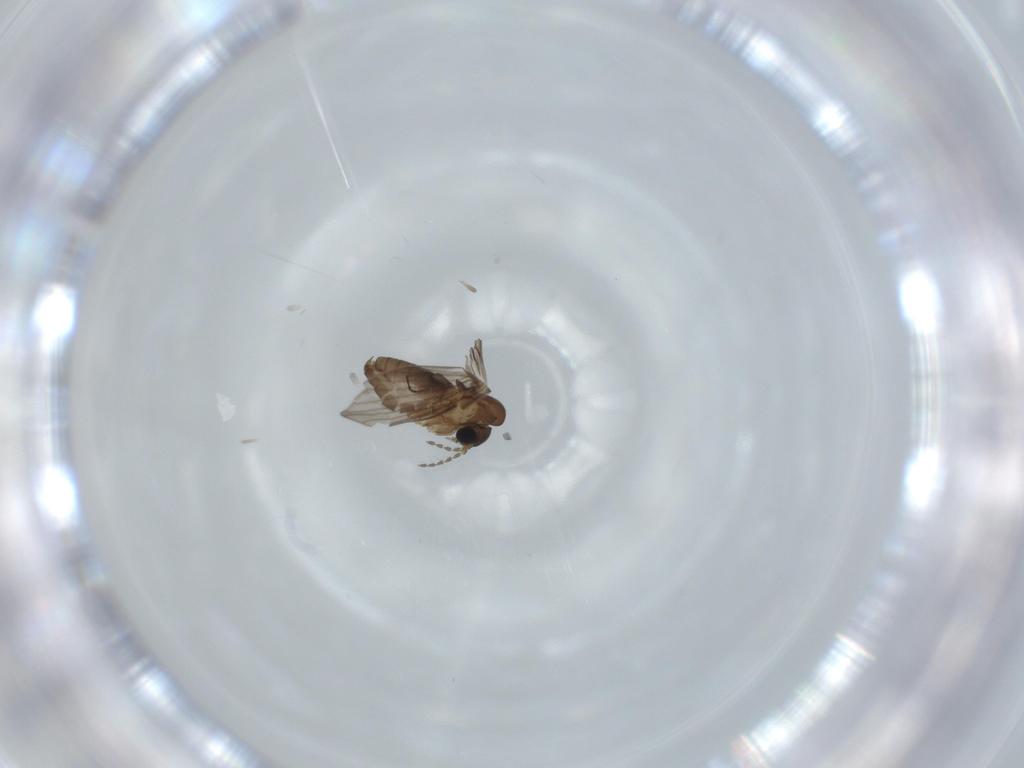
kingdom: Animalia
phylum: Arthropoda
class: Insecta
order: Diptera
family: Psychodidae
